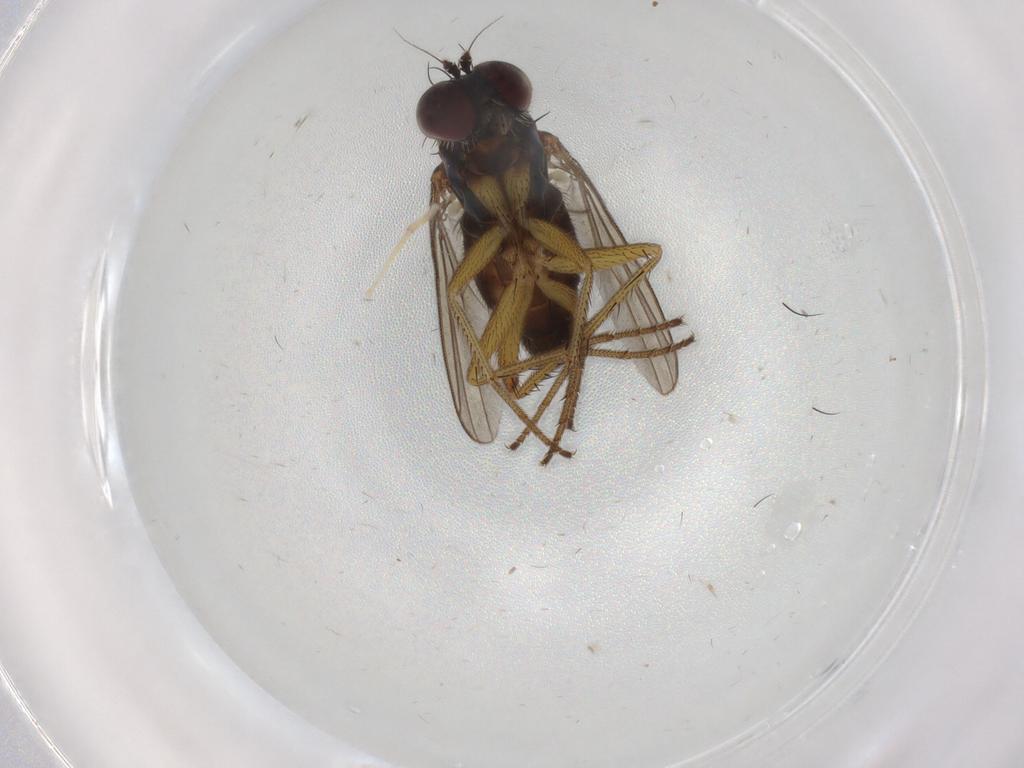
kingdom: Animalia
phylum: Arthropoda
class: Insecta
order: Diptera
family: Dolichopodidae
